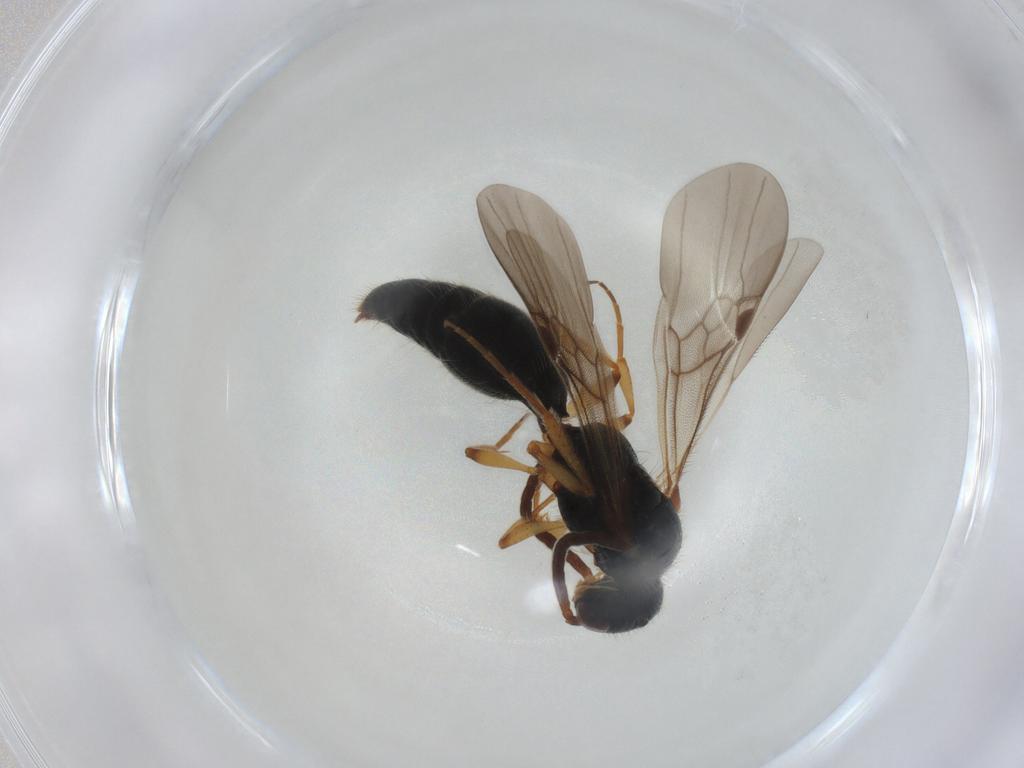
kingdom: Animalia
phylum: Arthropoda
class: Insecta
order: Hymenoptera
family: Mutillidae
